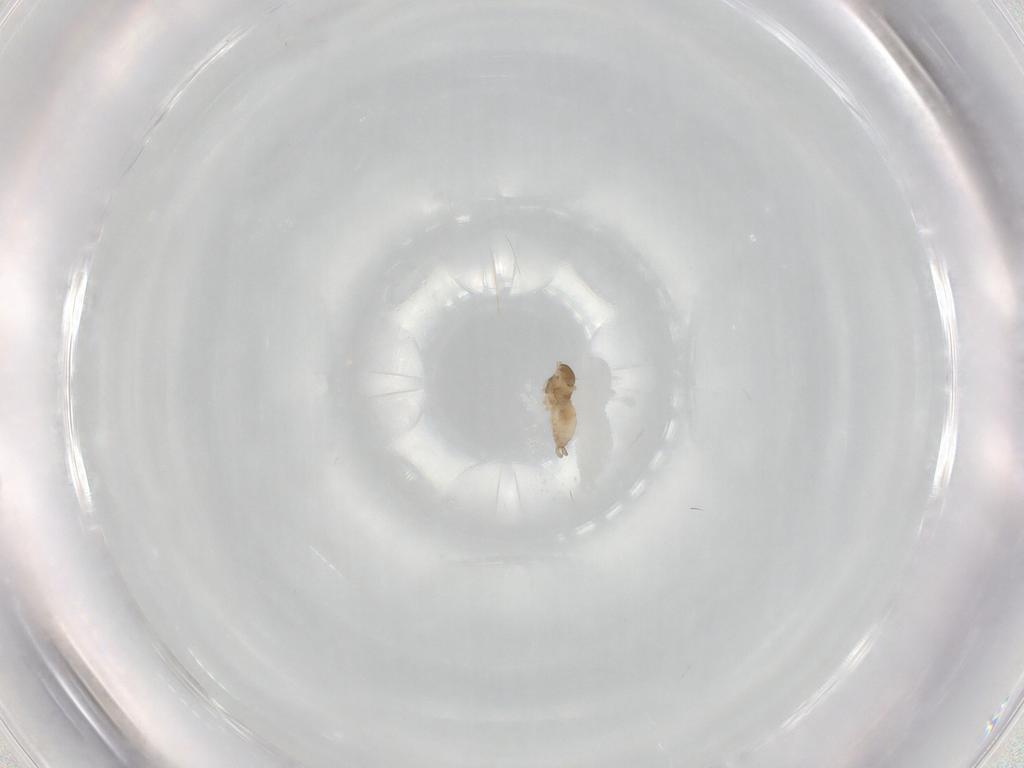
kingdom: Animalia
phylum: Arthropoda
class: Insecta
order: Diptera
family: Cecidomyiidae
